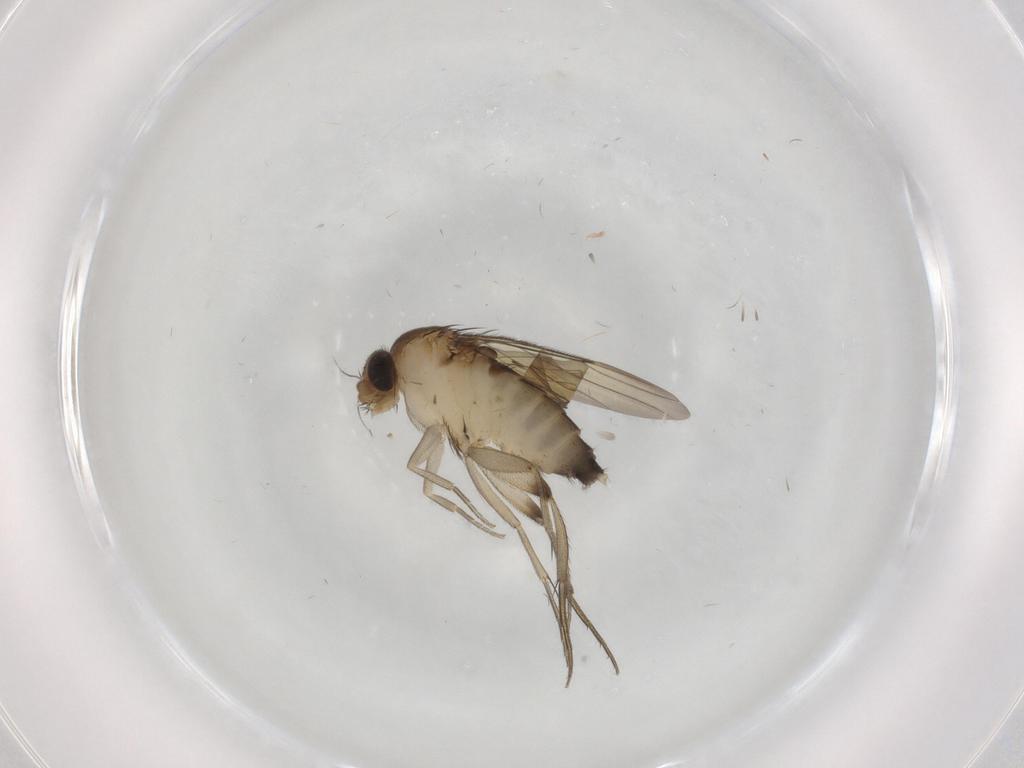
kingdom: Animalia
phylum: Arthropoda
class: Insecta
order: Diptera
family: Phoridae
